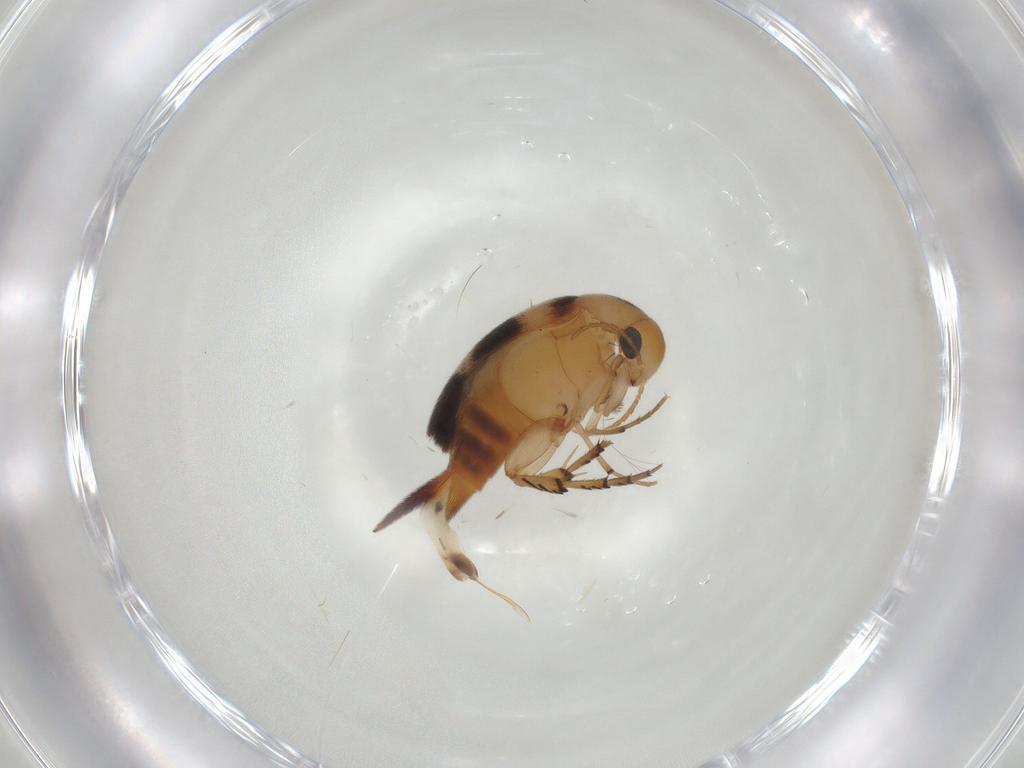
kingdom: Animalia
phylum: Arthropoda
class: Insecta
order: Coleoptera
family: Mordellidae
